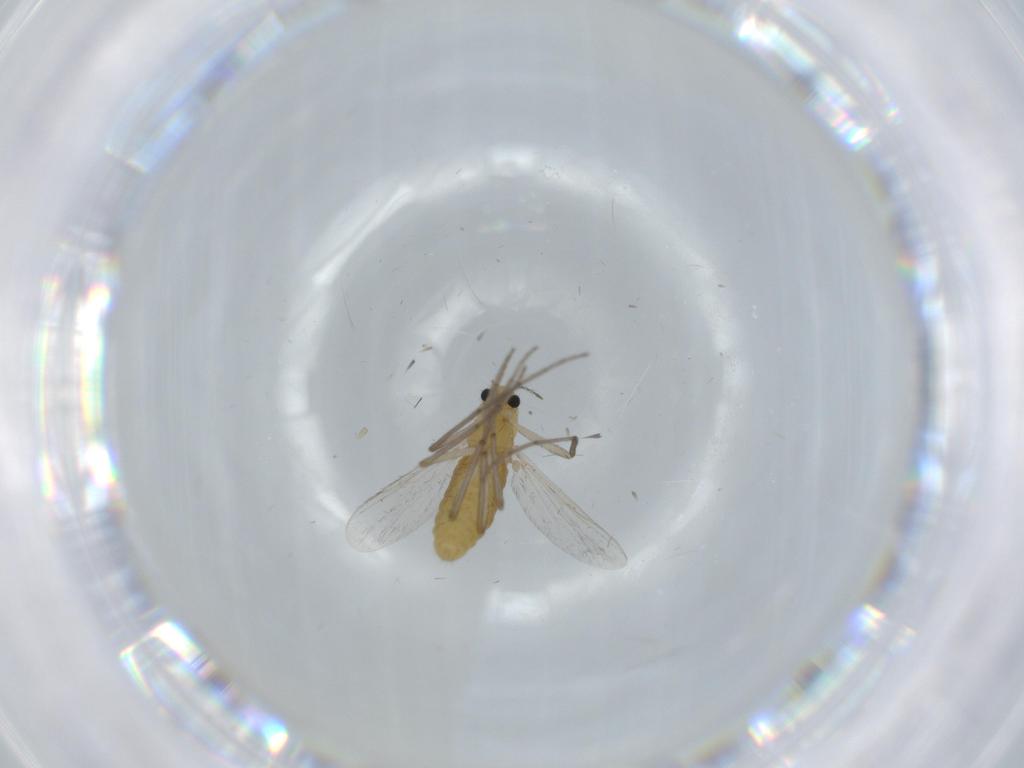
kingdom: Animalia
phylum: Arthropoda
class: Insecta
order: Diptera
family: Chironomidae
